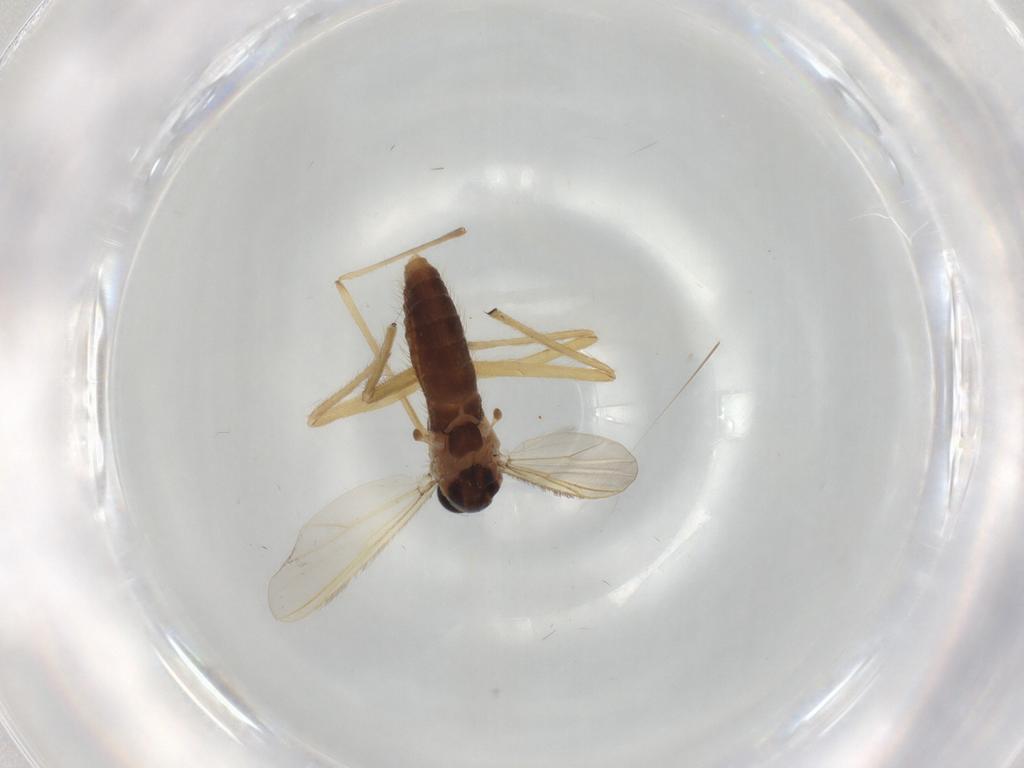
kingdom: Animalia
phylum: Arthropoda
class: Insecta
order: Diptera
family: Chironomidae
